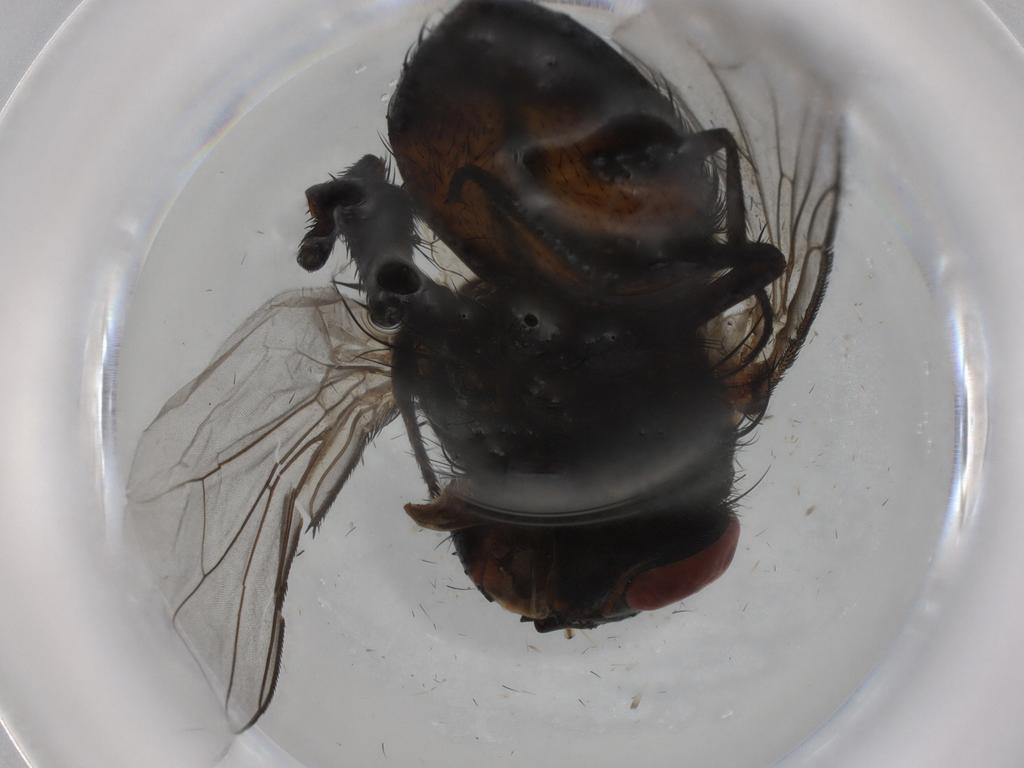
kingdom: Animalia
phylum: Arthropoda
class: Insecta
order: Diptera
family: Tachinidae
